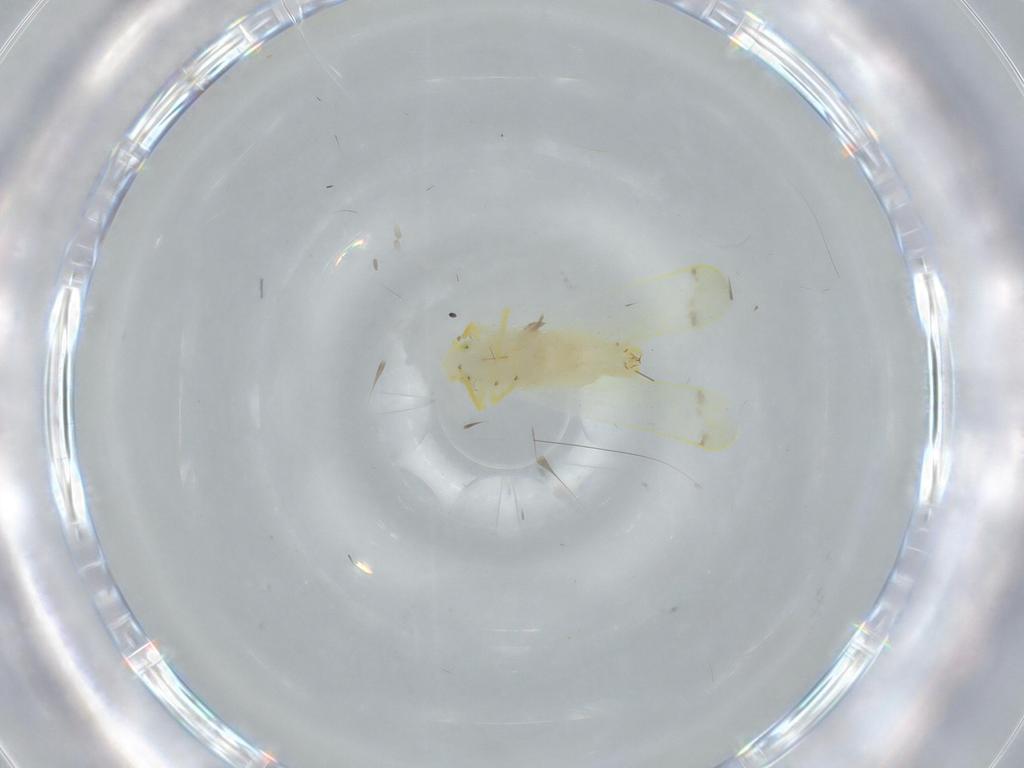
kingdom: Animalia
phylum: Arthropoda
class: Insecta
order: Hemiptera
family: Cicadellidae
